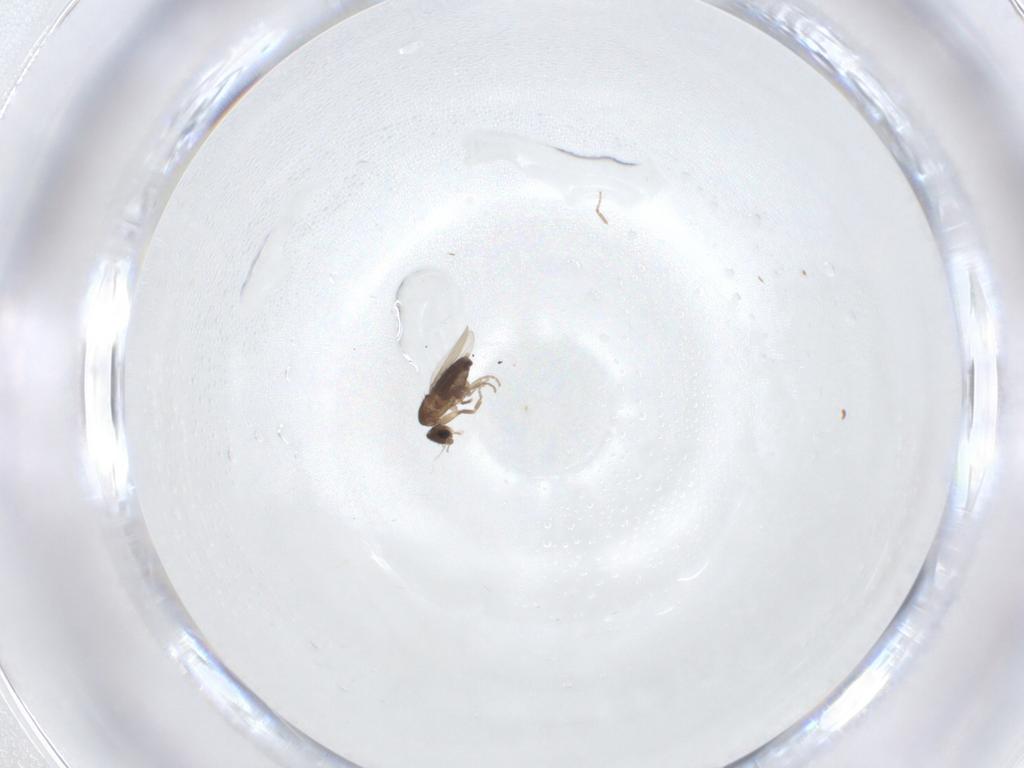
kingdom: Animalia
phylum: Arthropoda
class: Insecta
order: Diptera
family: Phoridae
